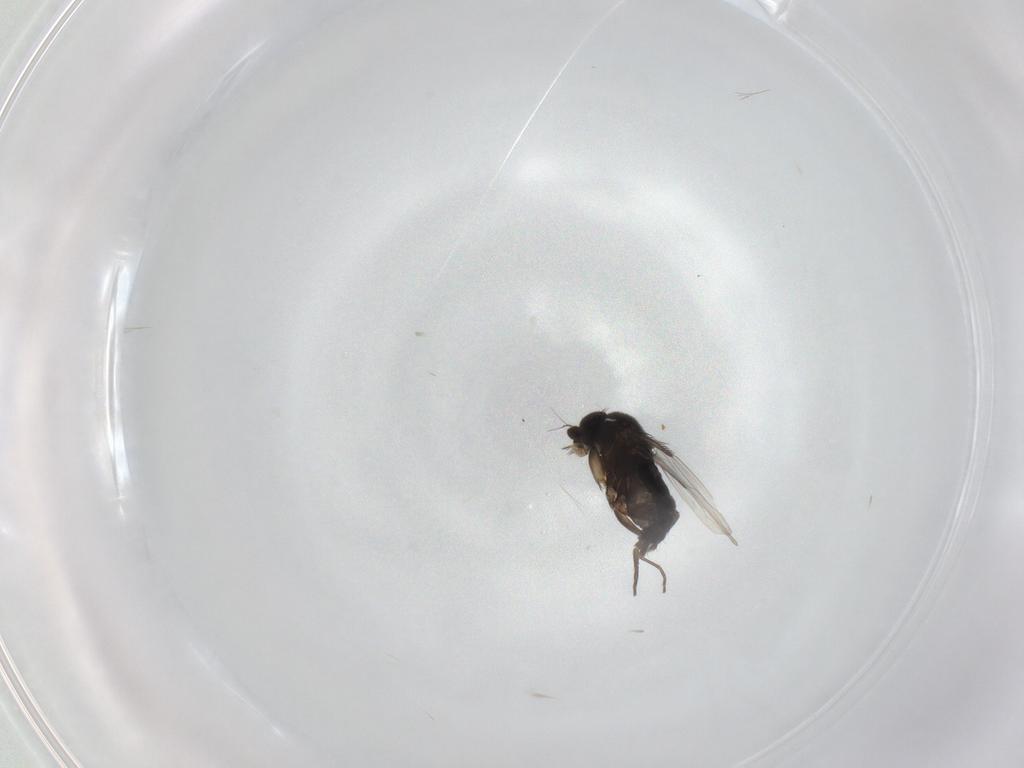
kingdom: Animalia
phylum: Arthropoda
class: Insecta
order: Diptera
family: Phoridae
